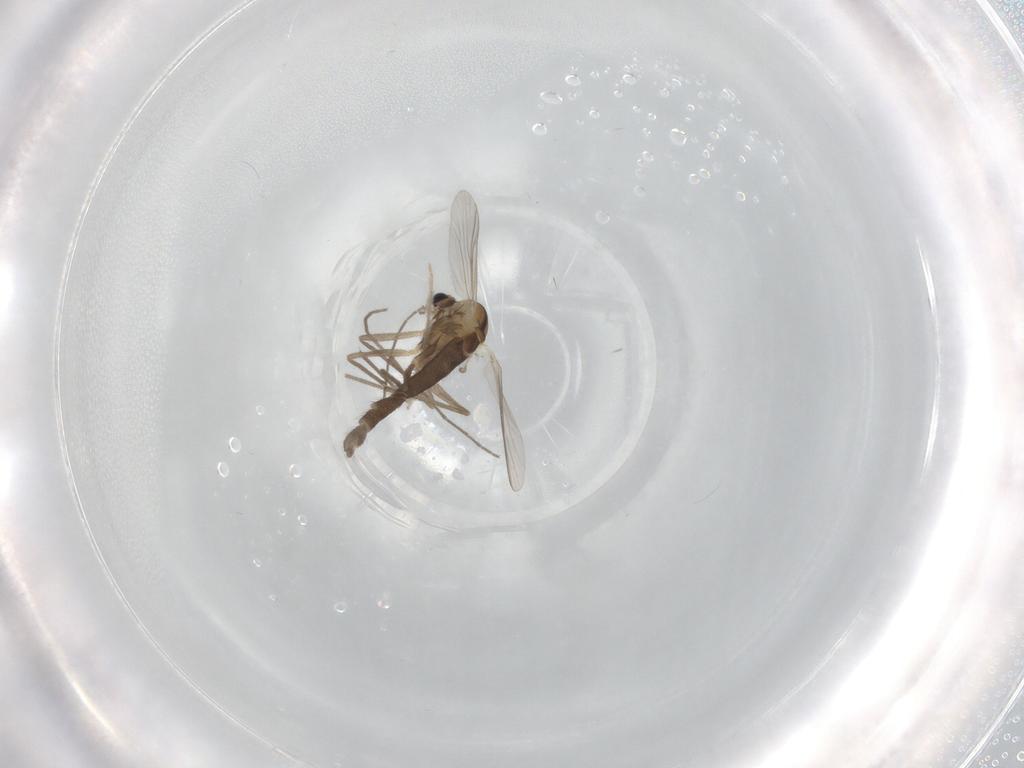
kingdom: Animalia
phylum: Arthropoda
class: Insecta
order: Diptera
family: Chironomidae
